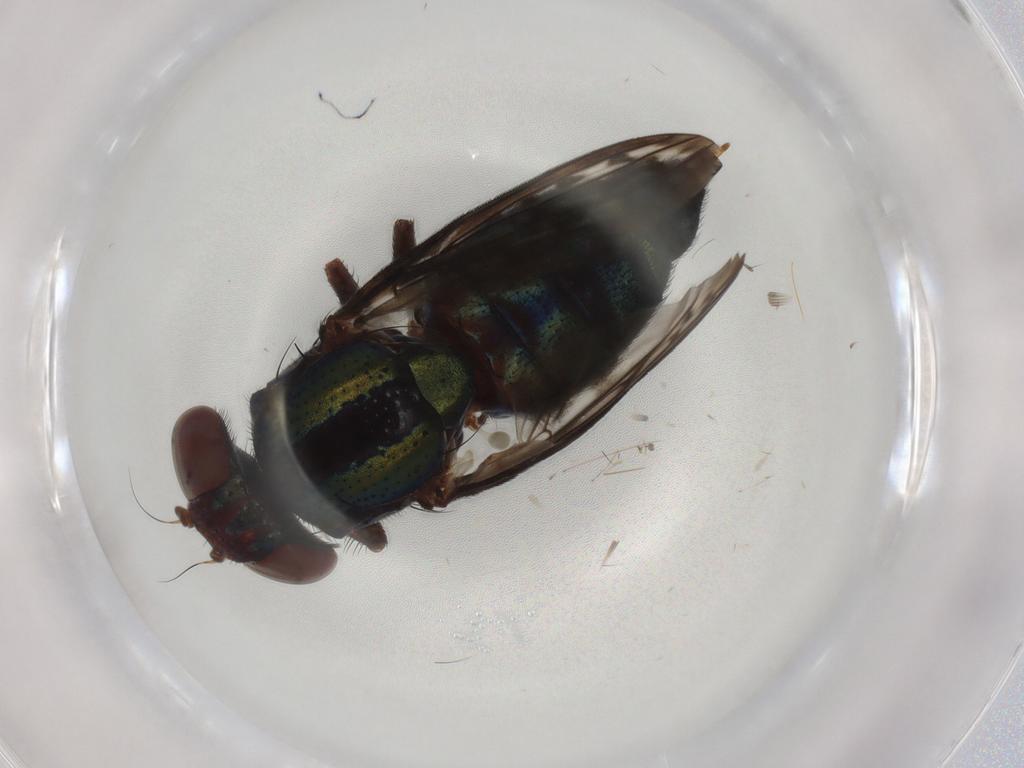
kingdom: Animalia
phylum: Arthropoda
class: Insecta
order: Diptera
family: Ulidiidae
